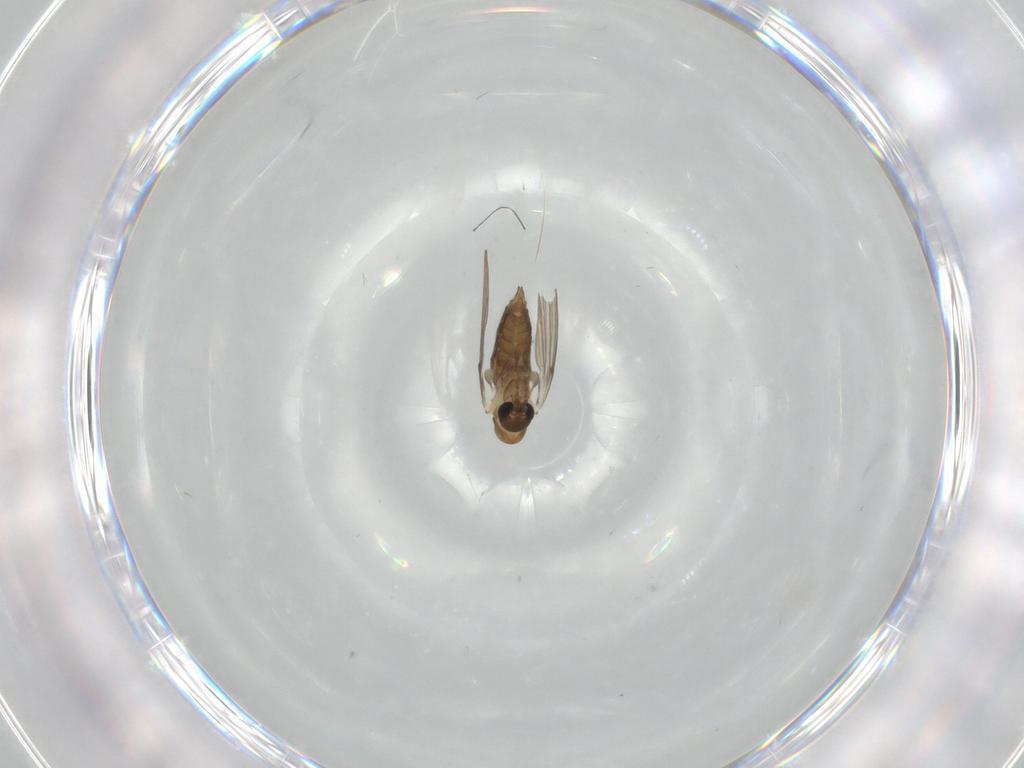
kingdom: Animalia
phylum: Arthropoda
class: Insecta
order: Diptera
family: Psychodidae
